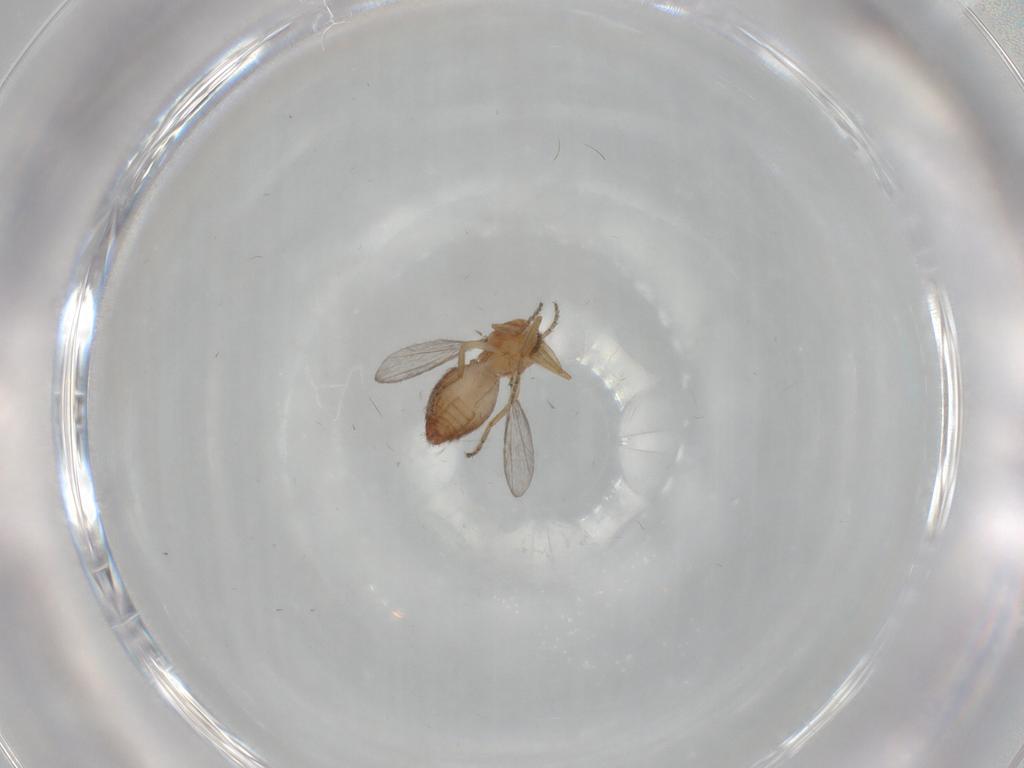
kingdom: Animalia
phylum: Arthropoda
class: Insecta
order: Diptera
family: Ceratopogonidae
